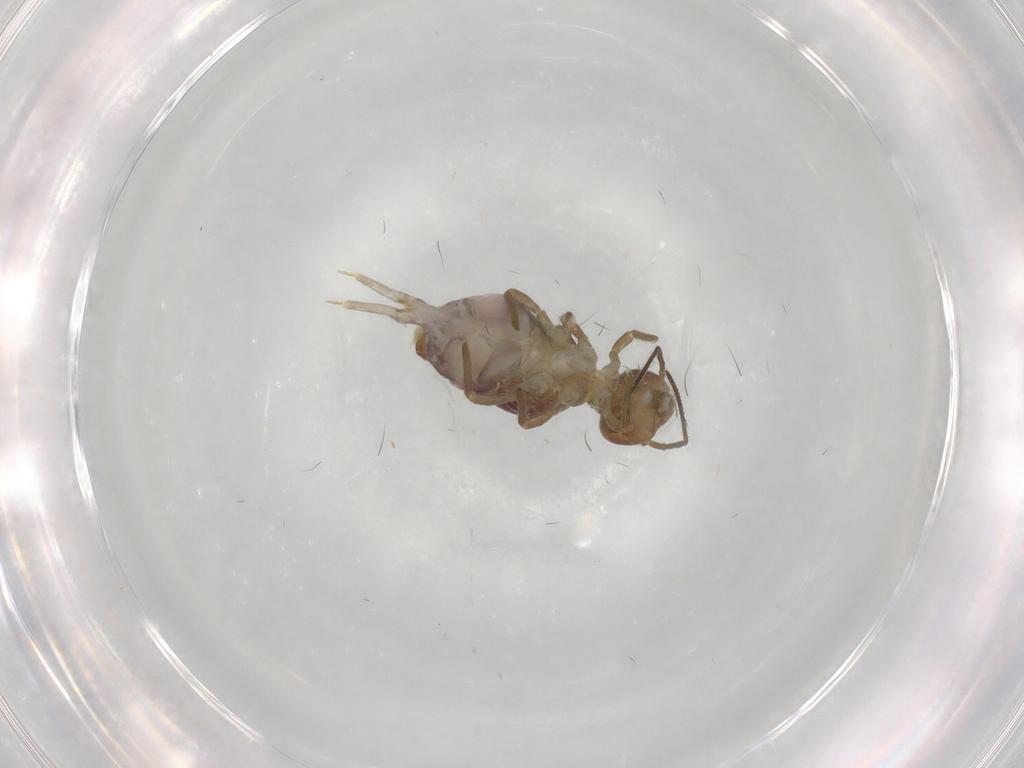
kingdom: Animalia
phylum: Arthropoda
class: Collembola
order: Symphypleona
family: Sminthuridae
